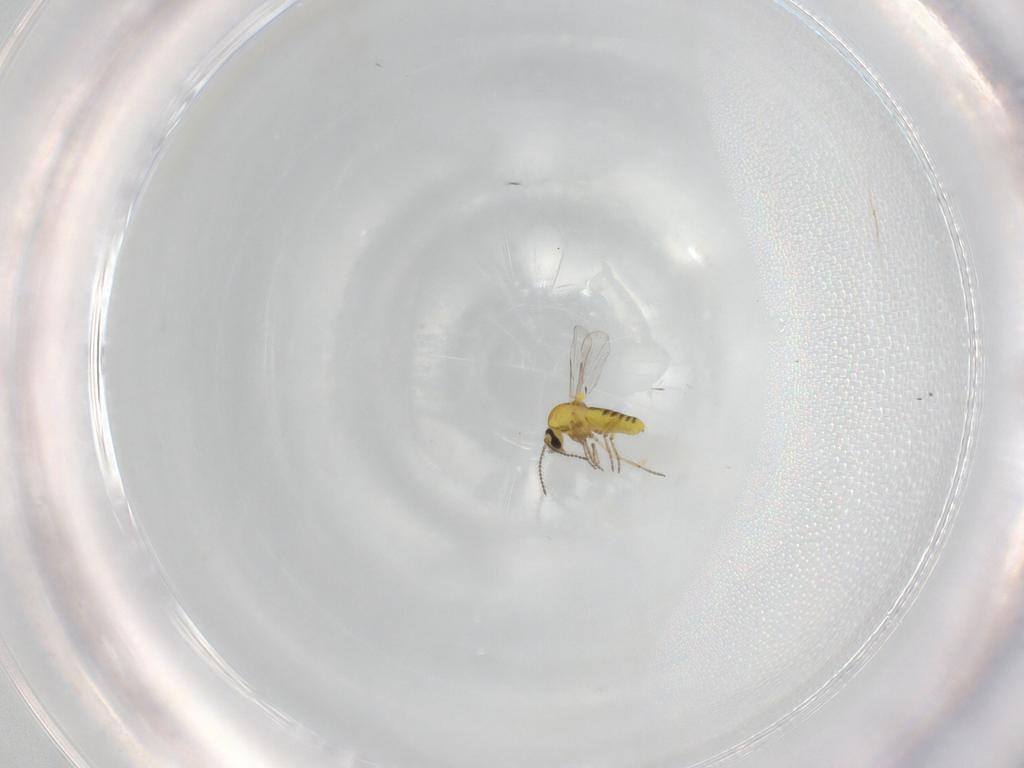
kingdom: Animalia
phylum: Arthropoda
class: Insecta
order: Diptera
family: Ceratopogonidae
